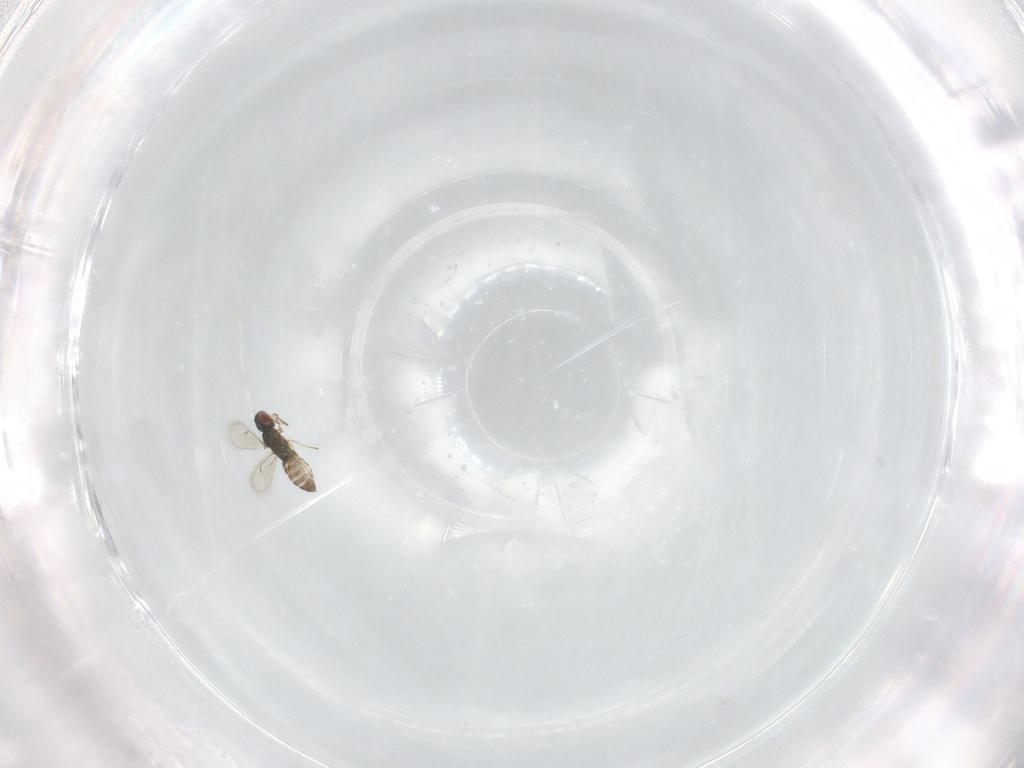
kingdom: Animalia
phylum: Arthropoda
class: Insecta
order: Hymenoptera
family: Vespidae
